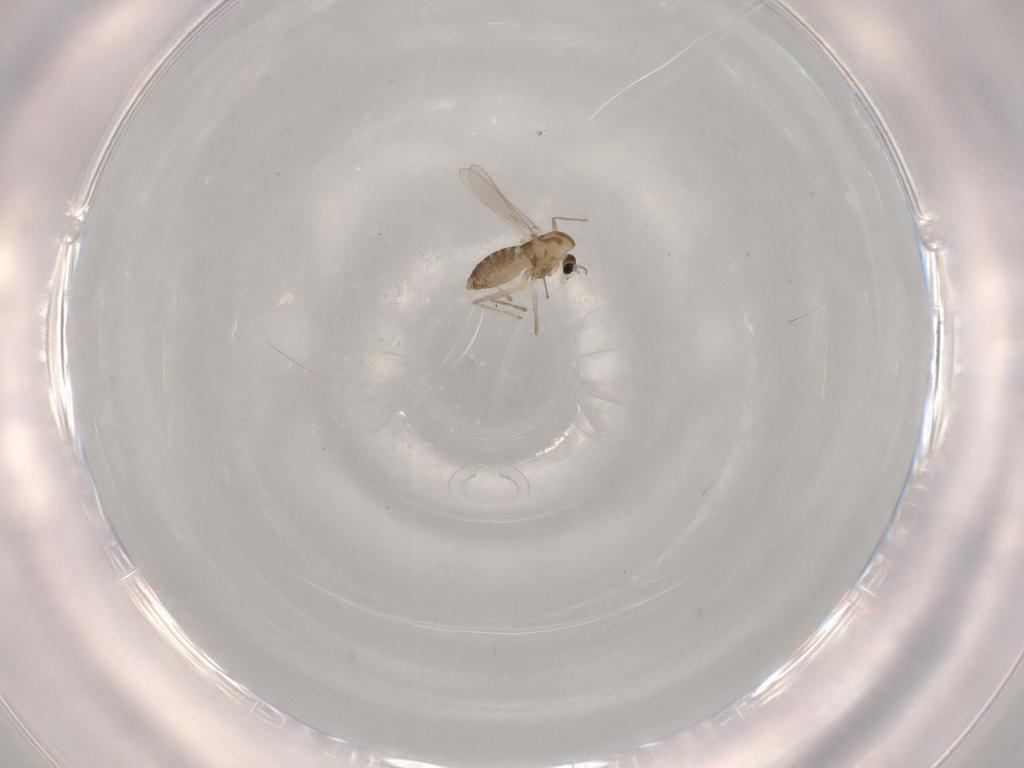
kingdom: Animalia
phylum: Arthropoda
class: Insecta
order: Diptera
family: Chironomidae
